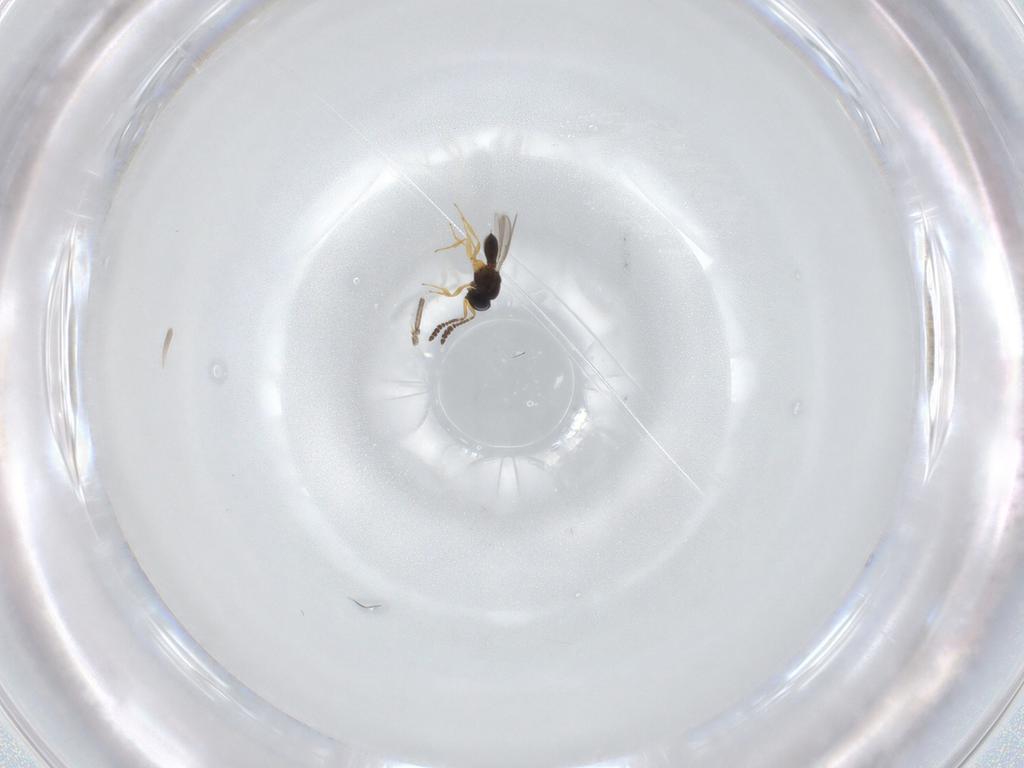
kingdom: Animalia
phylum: Arthropoda
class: Insecta
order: Hymenoptera
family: Scelionidae
